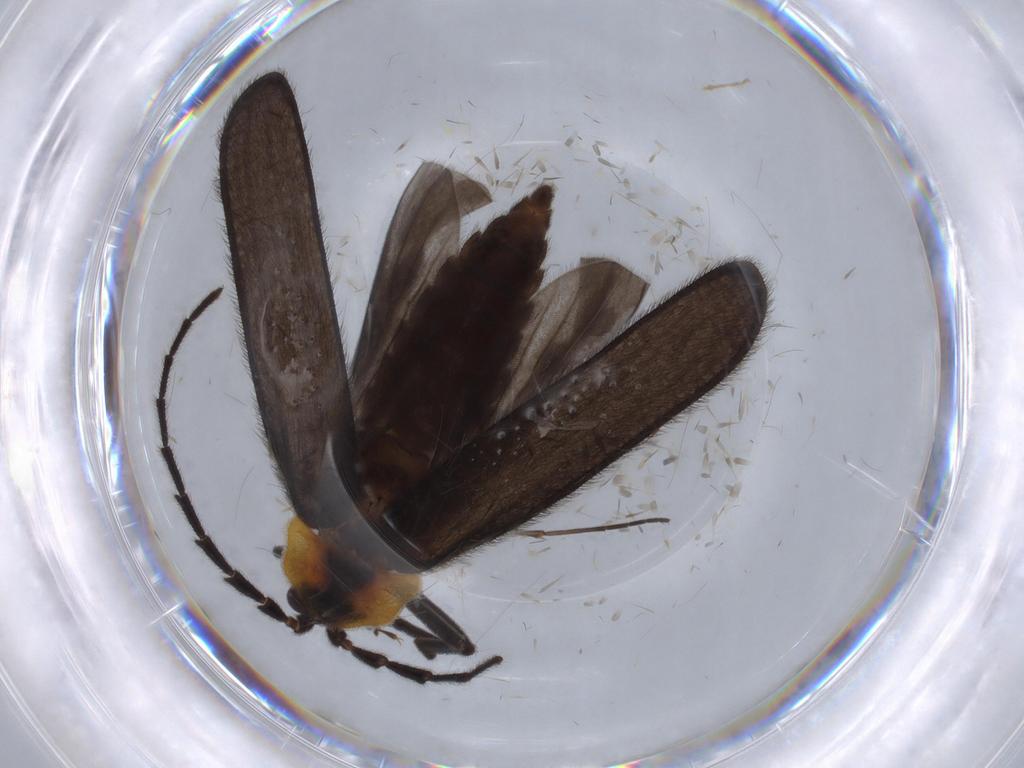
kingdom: Animalia
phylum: Arthropoda
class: Insecta
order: Coleoptera
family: Lycidae
